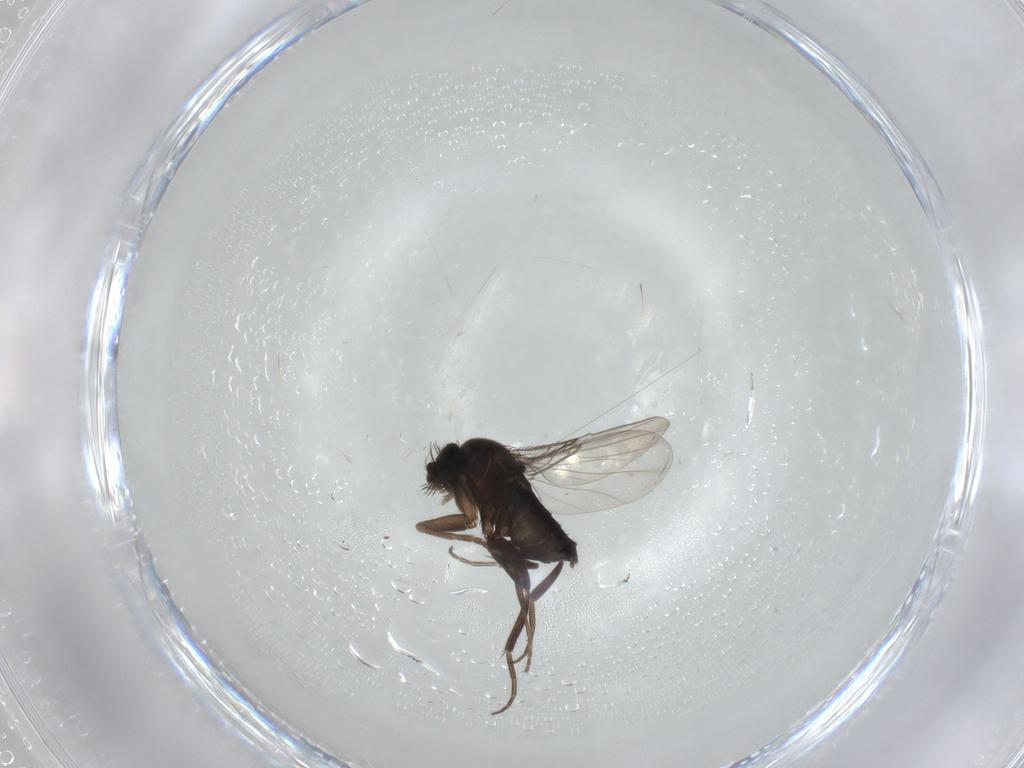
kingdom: Animalia
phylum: Arthropoda
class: Insecta
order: Diptera
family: Phoridae
